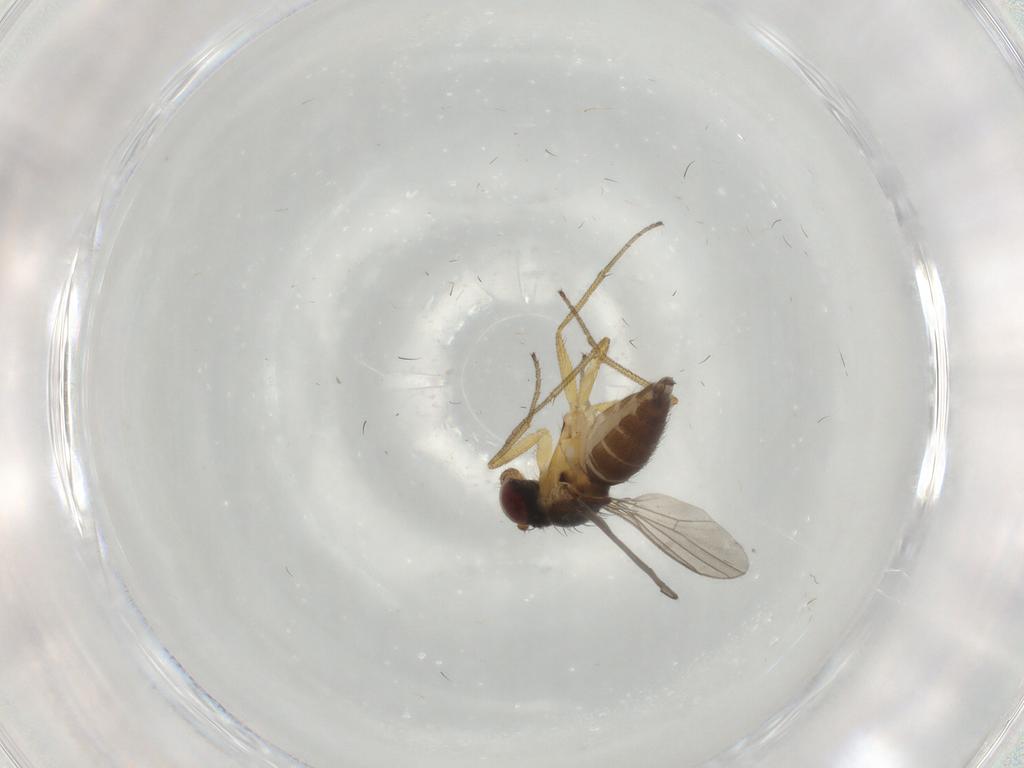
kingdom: Animalia
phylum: Arthropoda
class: Insecta
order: Diptera
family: Dolichopodidae
